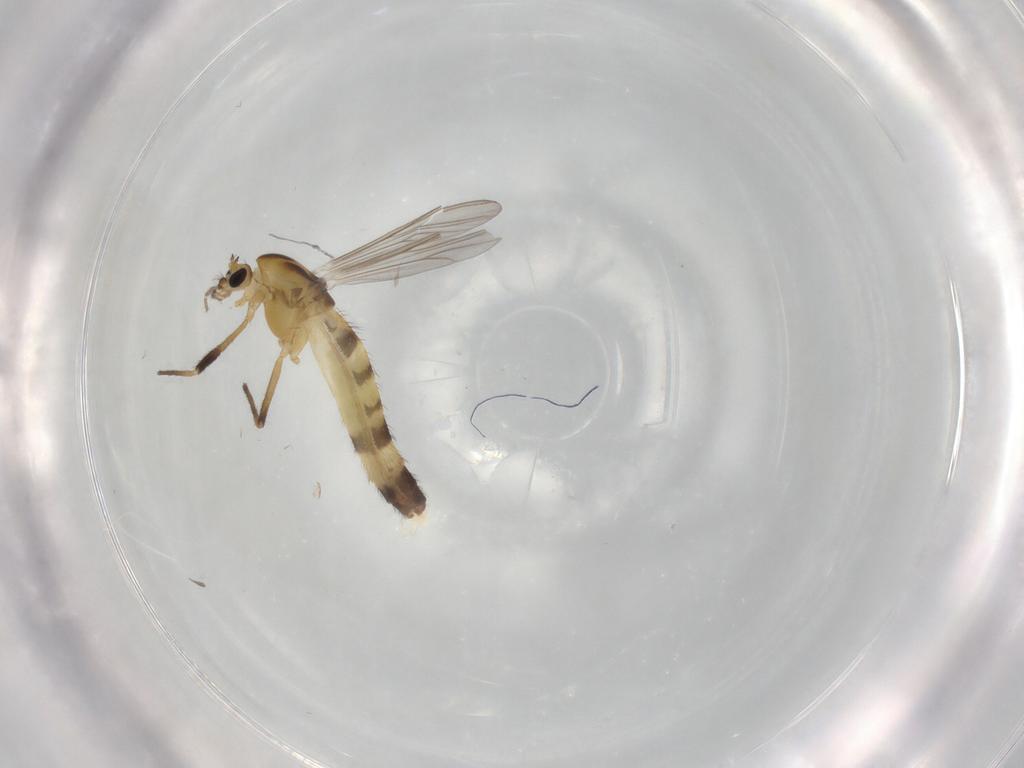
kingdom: Animalia
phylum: Arthropoda
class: Insecta
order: Diptera
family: Chironomidae
